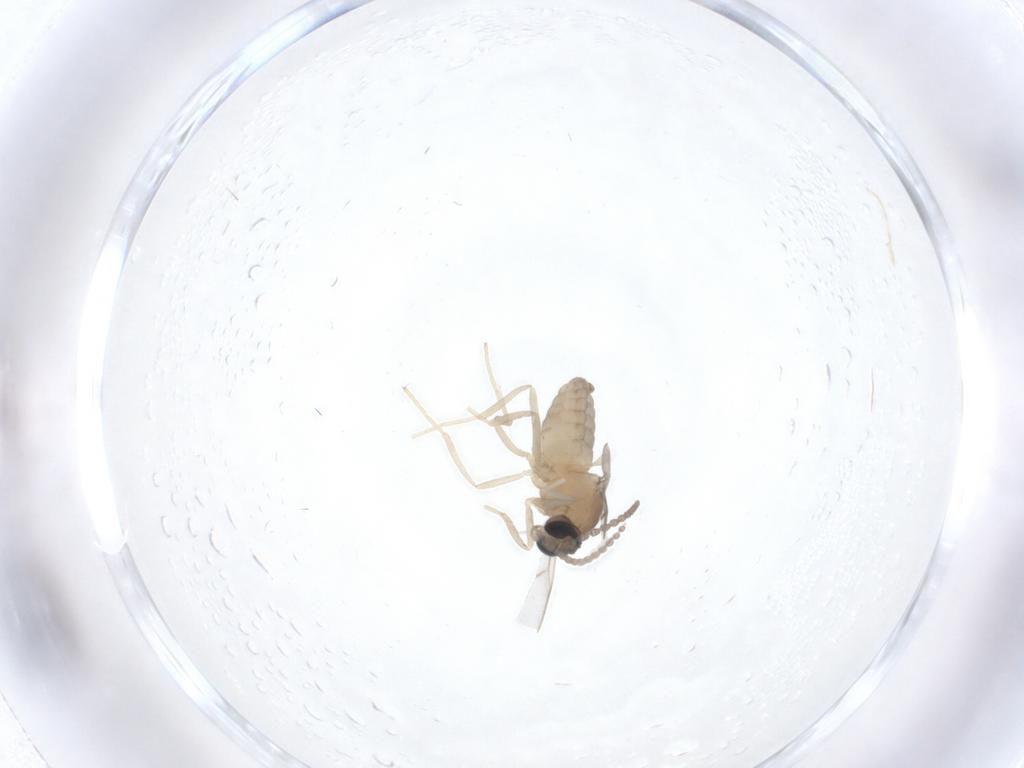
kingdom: Animalia
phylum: Arthropoda
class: Insecta
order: Diptera
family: Cecidomyiidae
